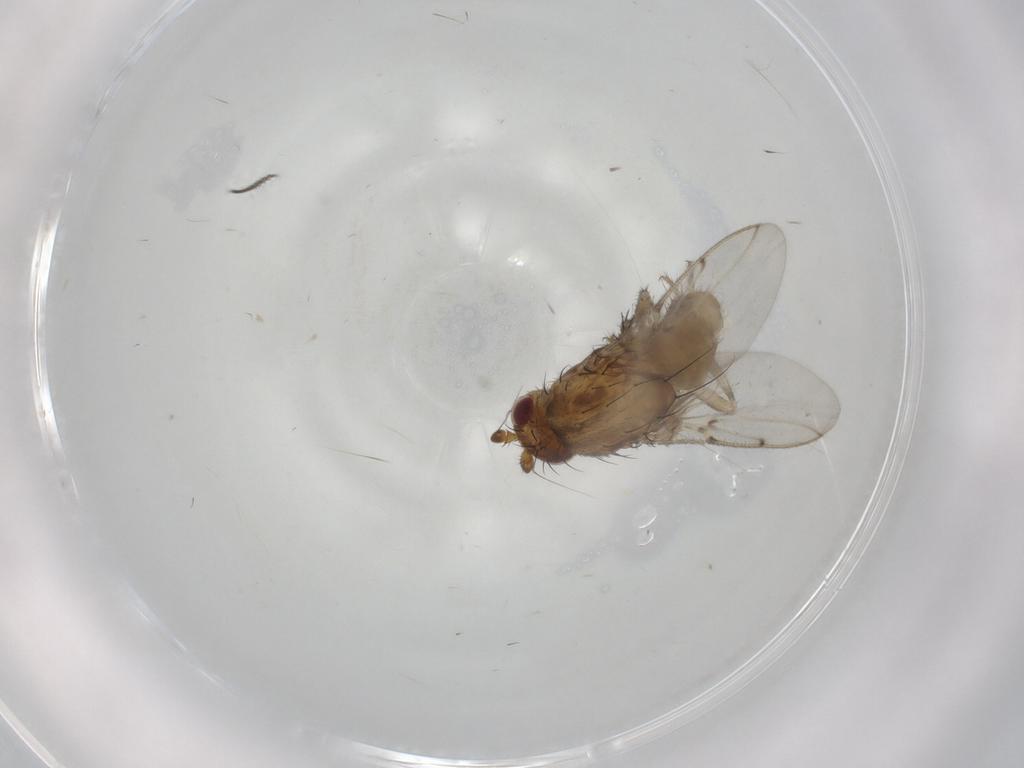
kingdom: Animalia
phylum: Arthropoda
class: Insecta
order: Diptera
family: Sphaeroceridae
